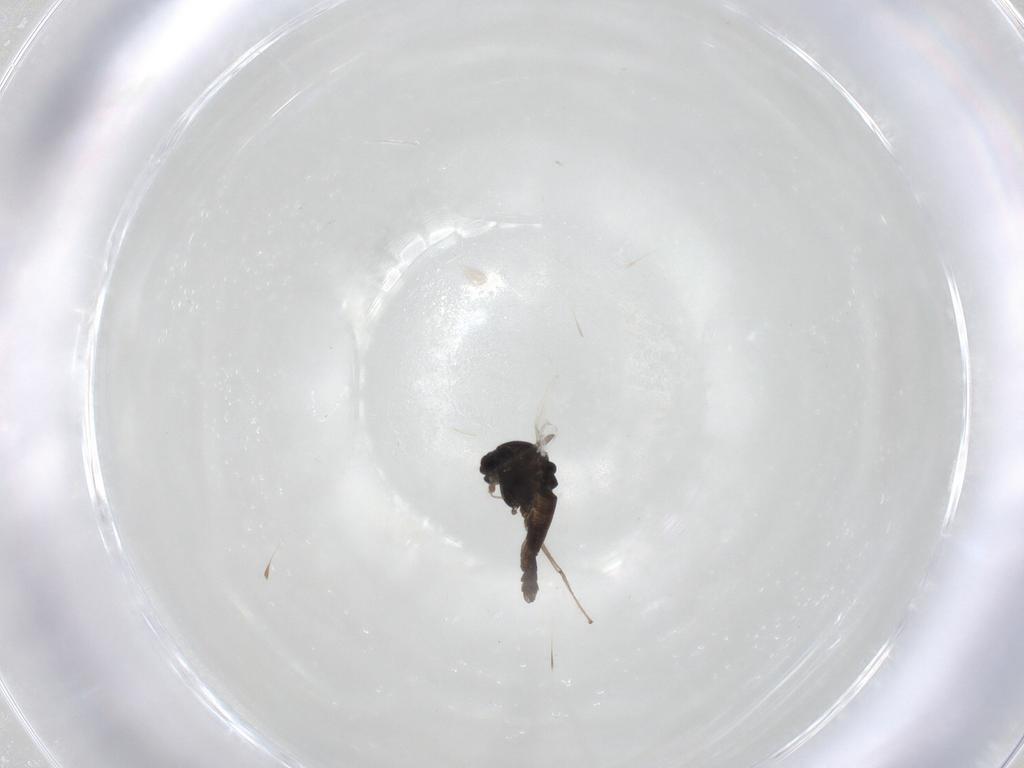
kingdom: Animalia
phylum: Arthropoda
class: Insecta
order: Diptera
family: Chironomidae
